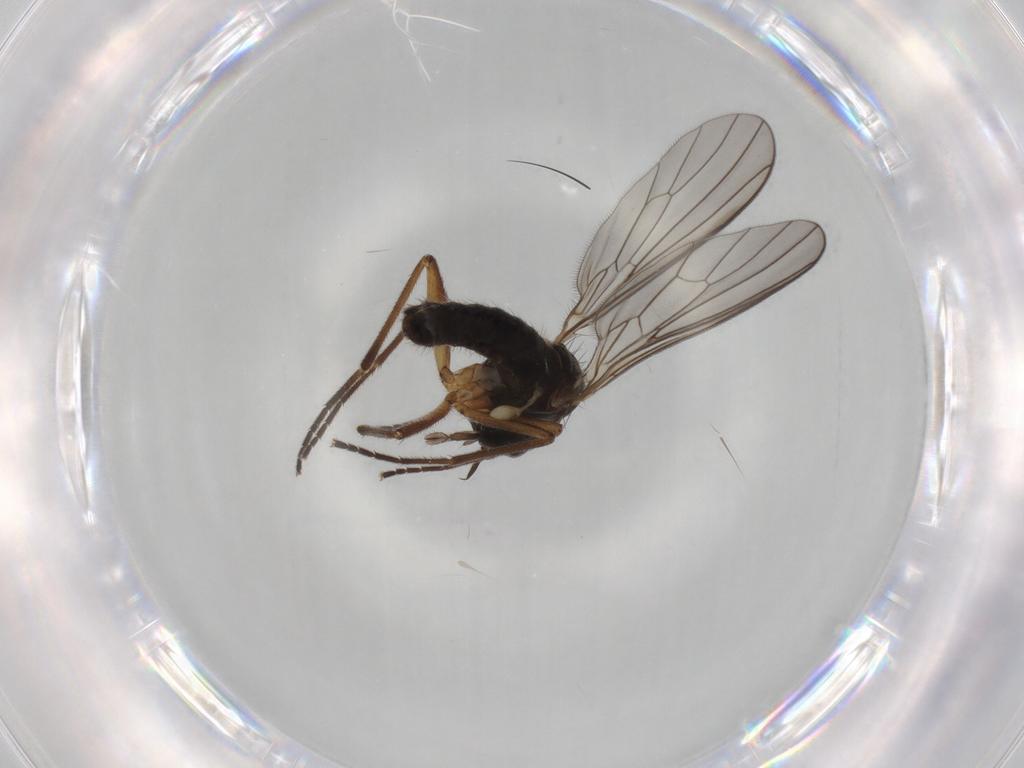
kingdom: Animalia
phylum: Arthropoda
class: Insecta
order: Diptera
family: Empididae
